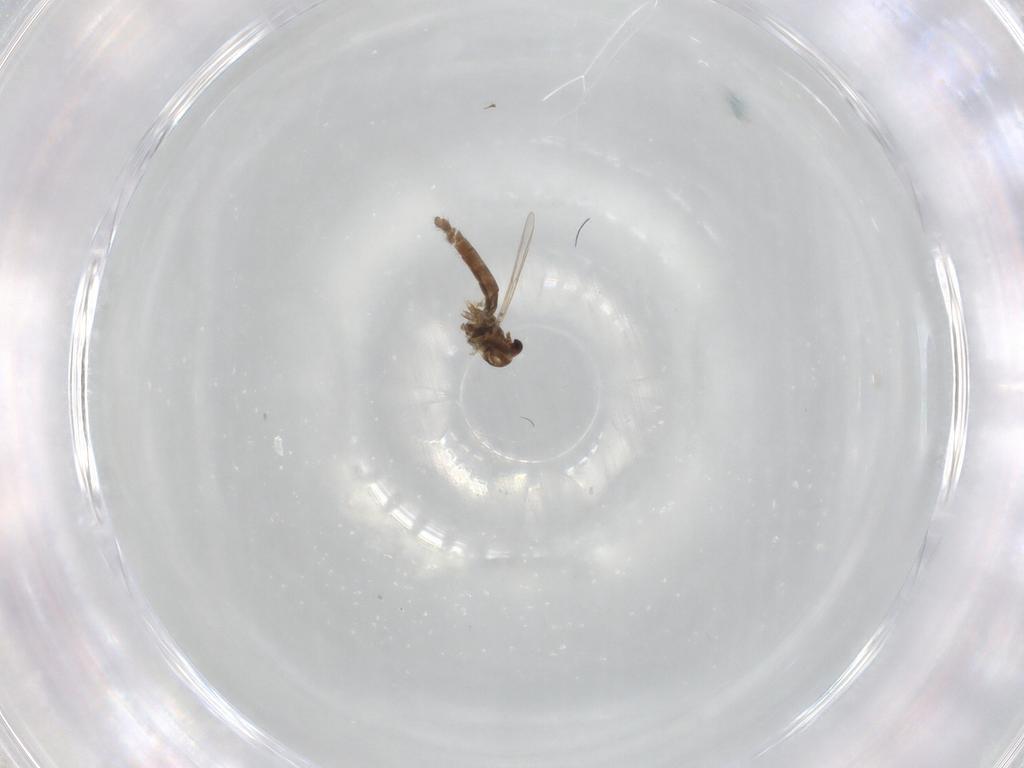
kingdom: Animalia
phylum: Arthropoda
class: Insecta
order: Diptera
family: Chironomidae
